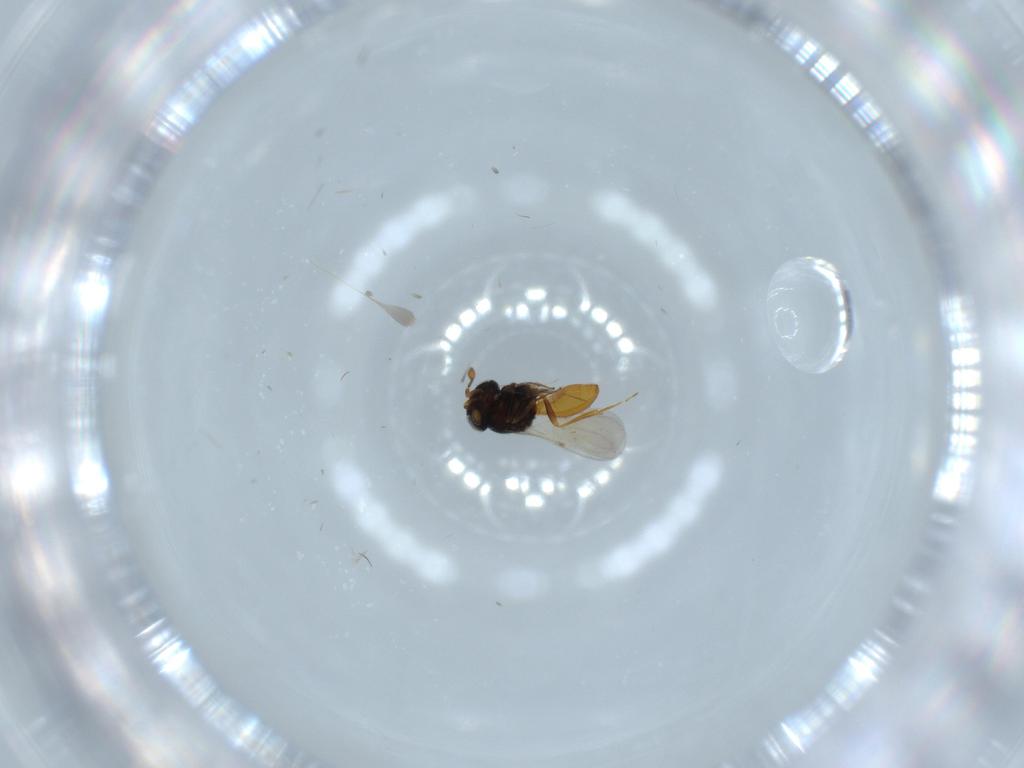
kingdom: Animalia
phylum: Arthropoda
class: Insecta
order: Hymenoptera
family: Scelionidae
